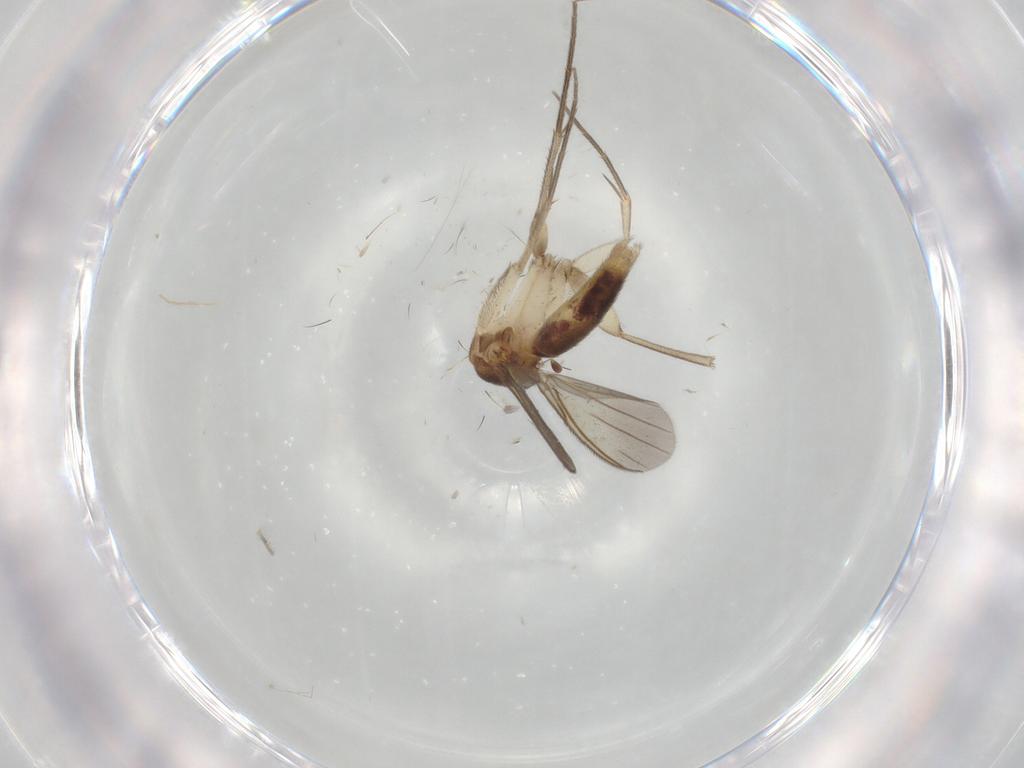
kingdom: Animalia
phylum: Arthropoda
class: Insecta
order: Diptera
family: Mycetophilidae
